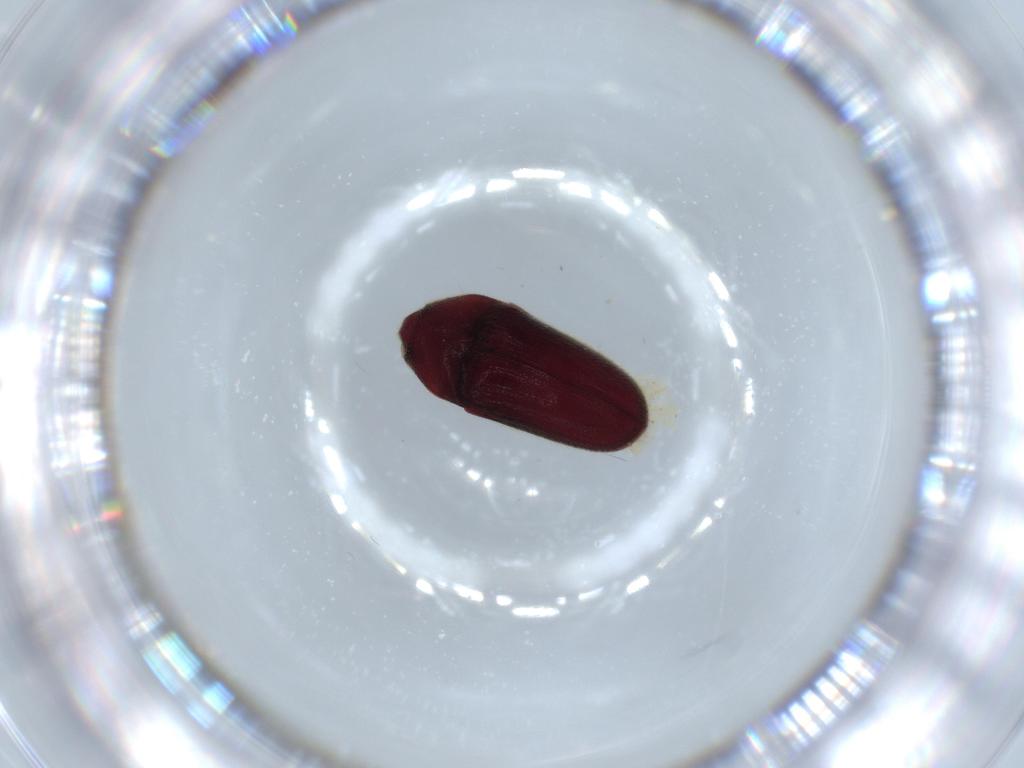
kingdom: Animalia
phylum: Arthropoda
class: Insecta
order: Coleoptera
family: Throscidae
